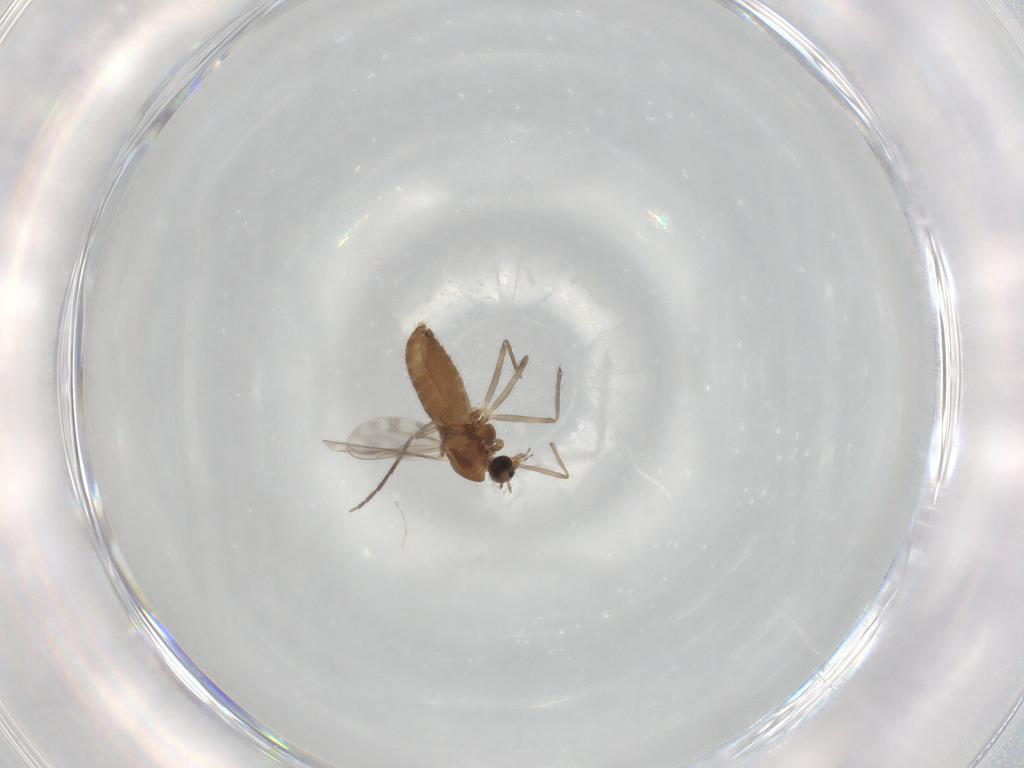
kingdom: Animalia
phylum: Arthropoda
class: Insecta
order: Diptera
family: Chironomidae
